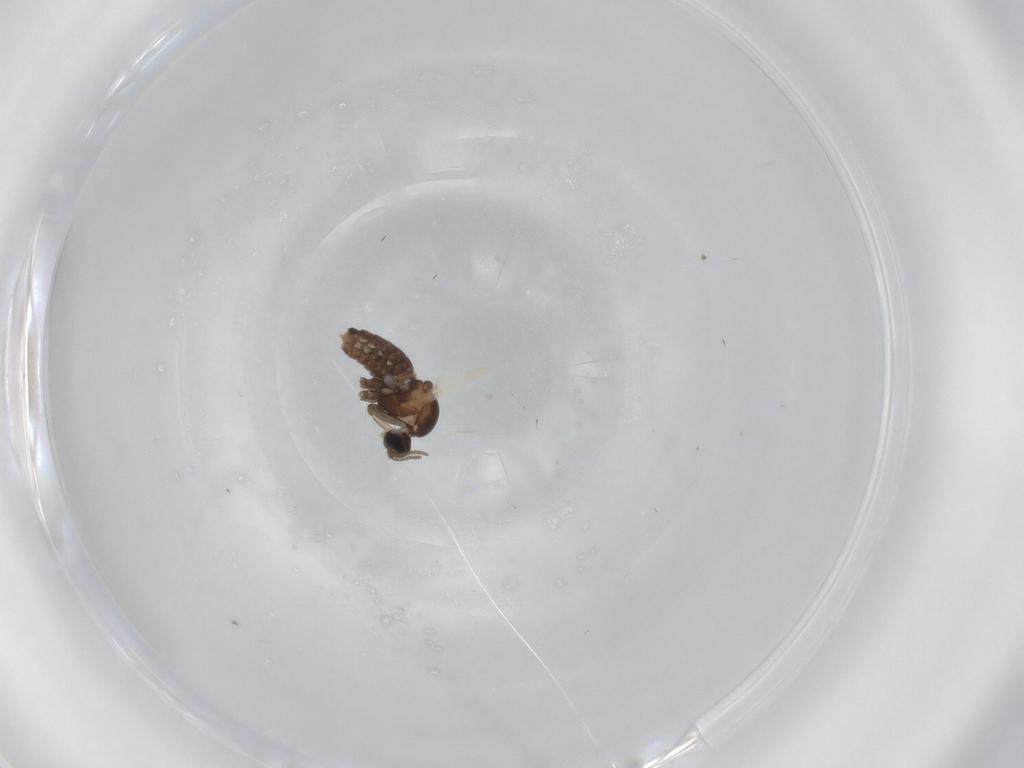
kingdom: Animalia
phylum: Arthropoda
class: Insecta
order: Diptera
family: Cecidomyiidae
